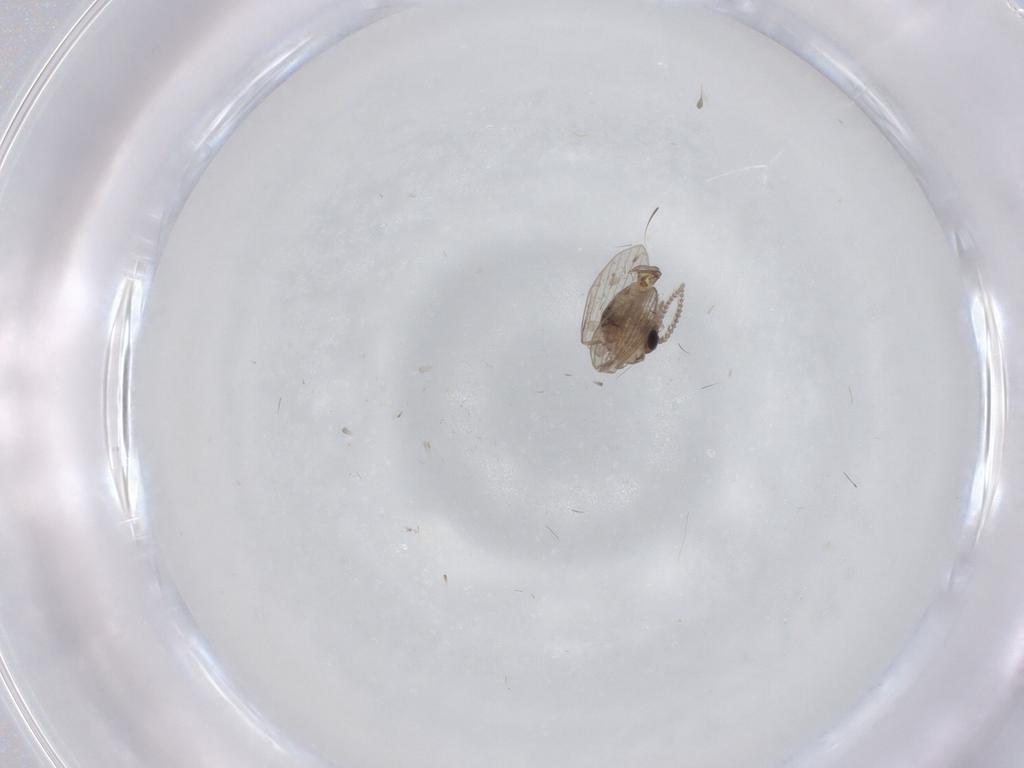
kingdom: Animalia
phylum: Arthropoda
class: Insecta
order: Diptera
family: Psychodidae
